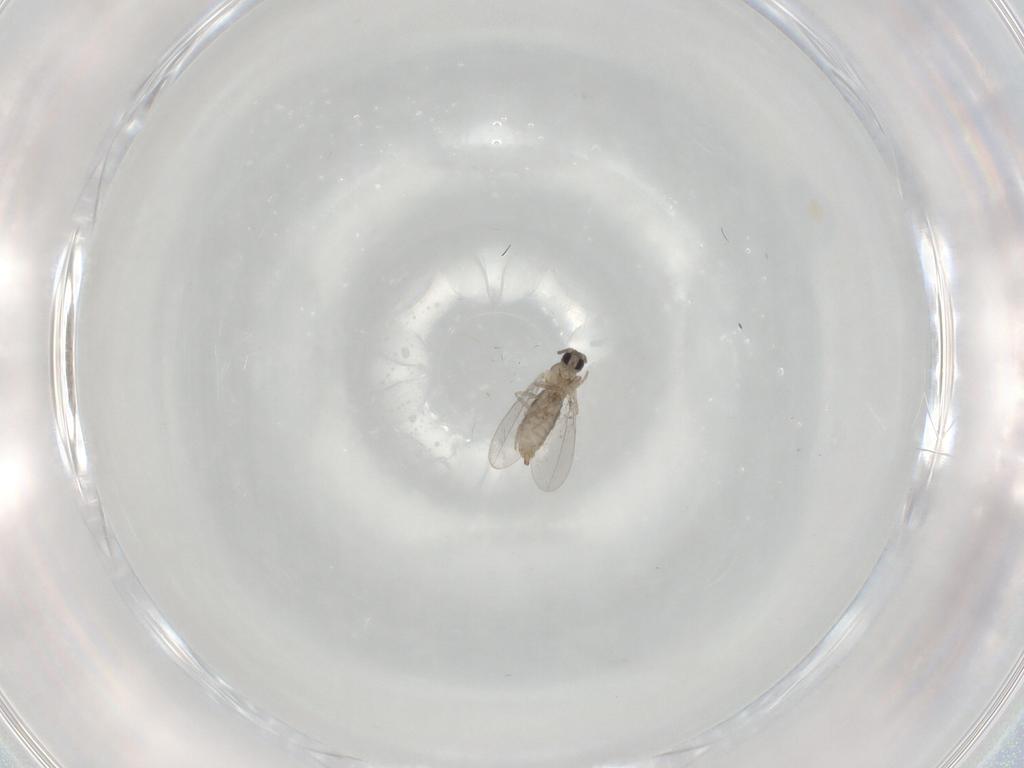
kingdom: Animalia
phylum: Arthropoda
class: Insecta
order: Diptera
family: Cecidomyiidae
